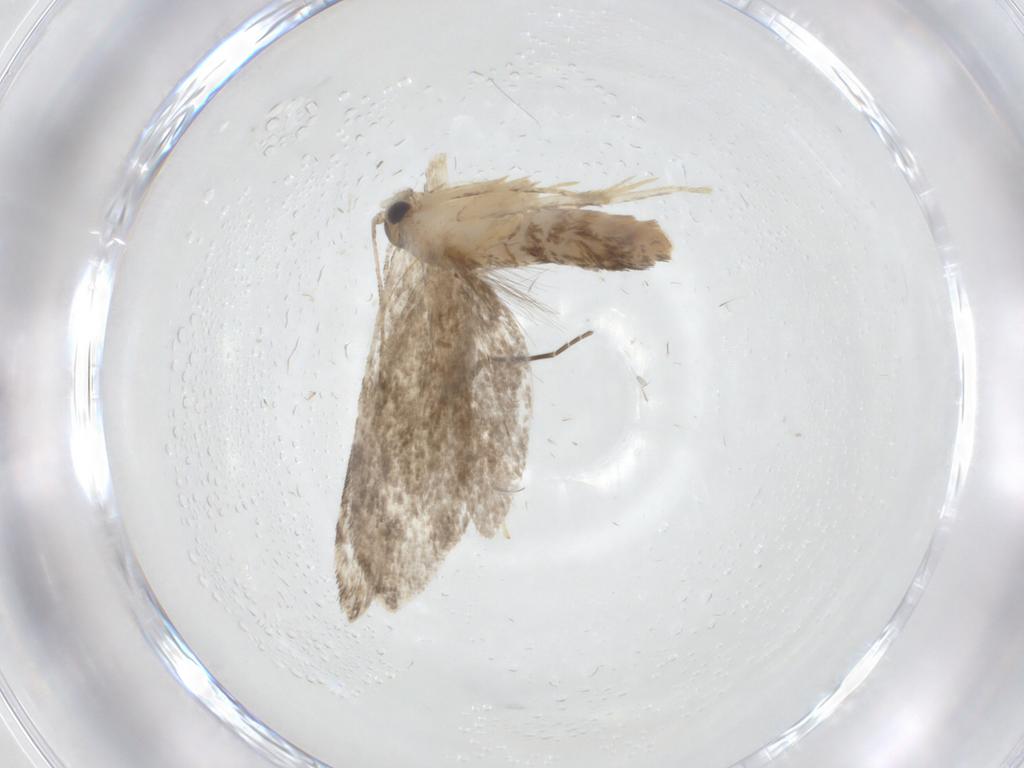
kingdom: Animalia
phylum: Arthropoda
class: Insecta
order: Lepidoptera
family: Tineidae
